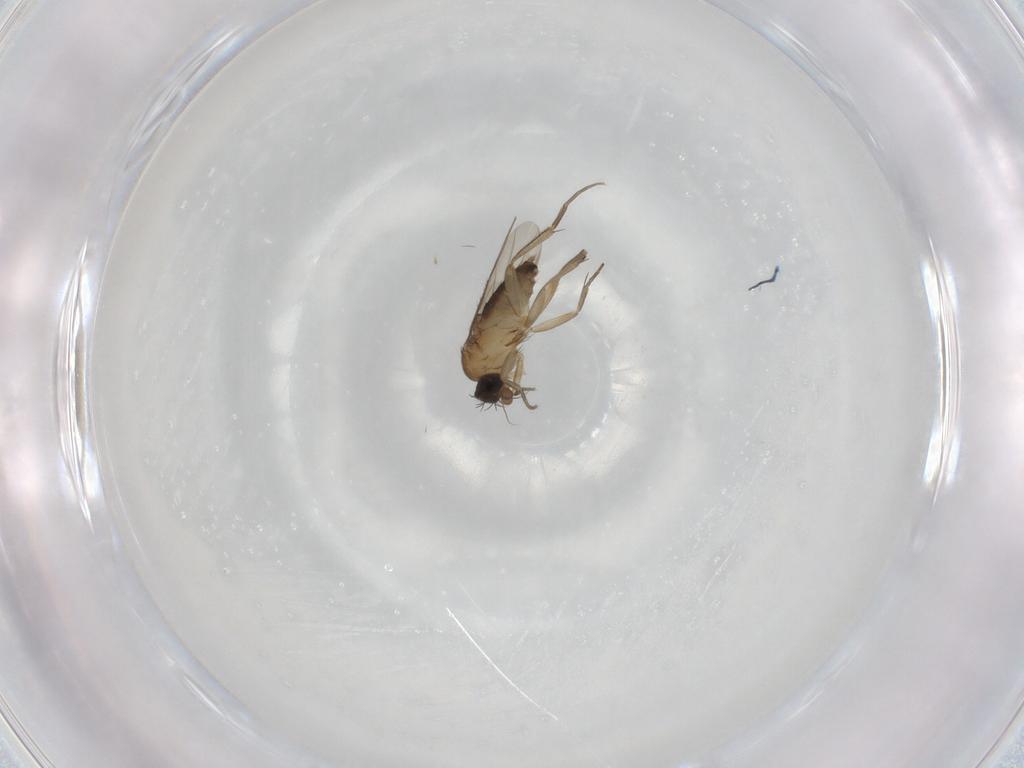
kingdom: Animalia
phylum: Arthropoda
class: Insecta
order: Diptera
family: Phoridae
